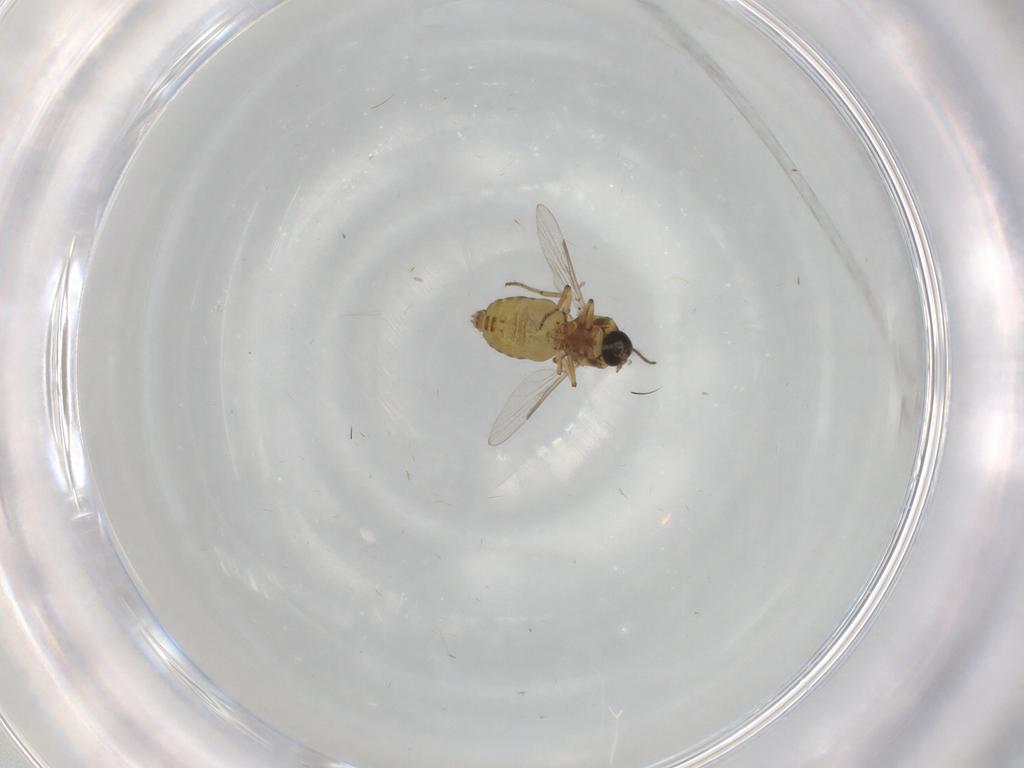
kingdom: Animalia
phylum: Arthropoda
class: Insecta
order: Diptera
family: Ceratopogonidae
